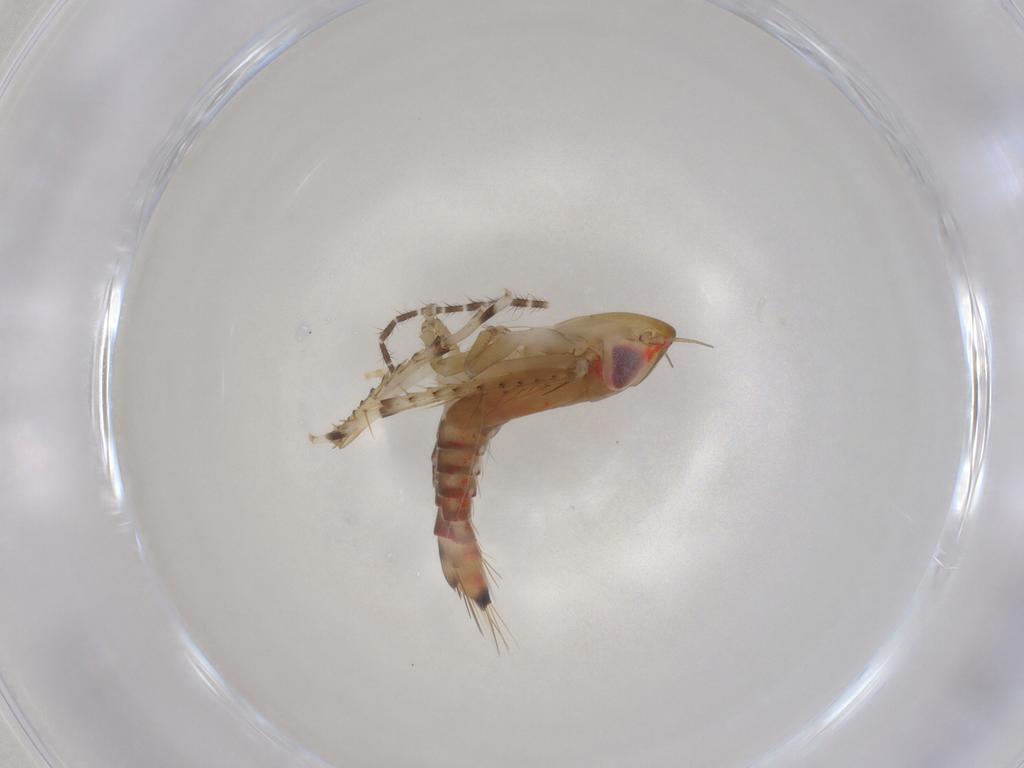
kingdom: Animalia
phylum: Arthropoda
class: Insecta
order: Hemiptera
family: Cicadellidae
